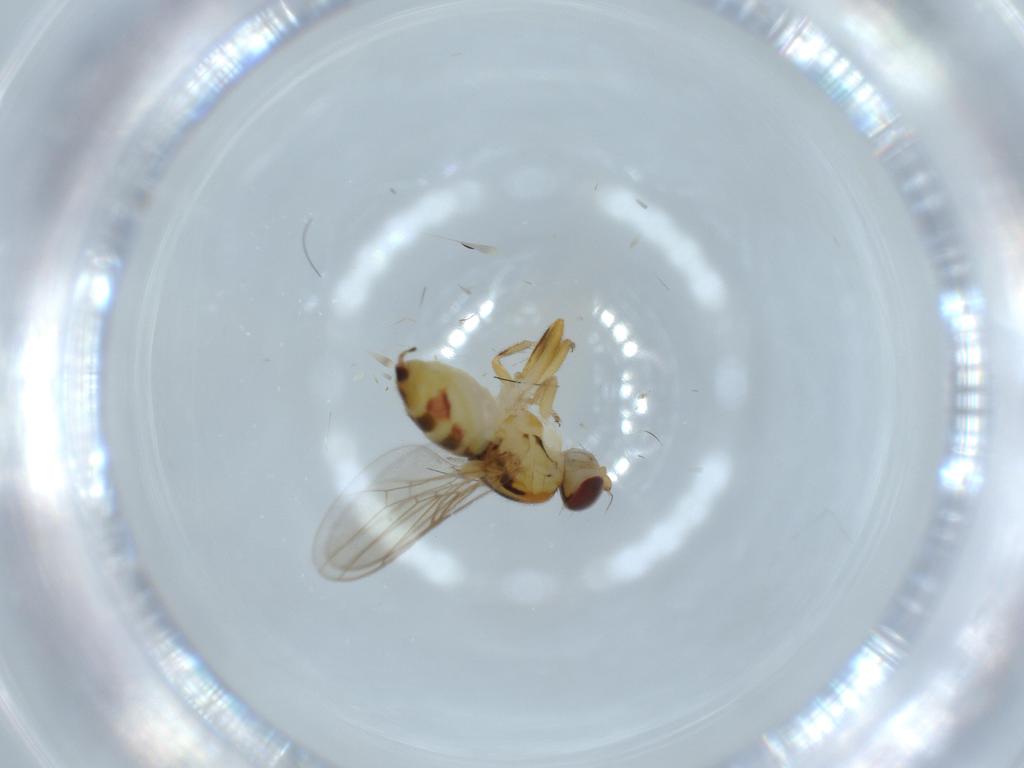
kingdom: Animalia
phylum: Arthropoda
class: Insecta
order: Diptera
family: Chloropidae
